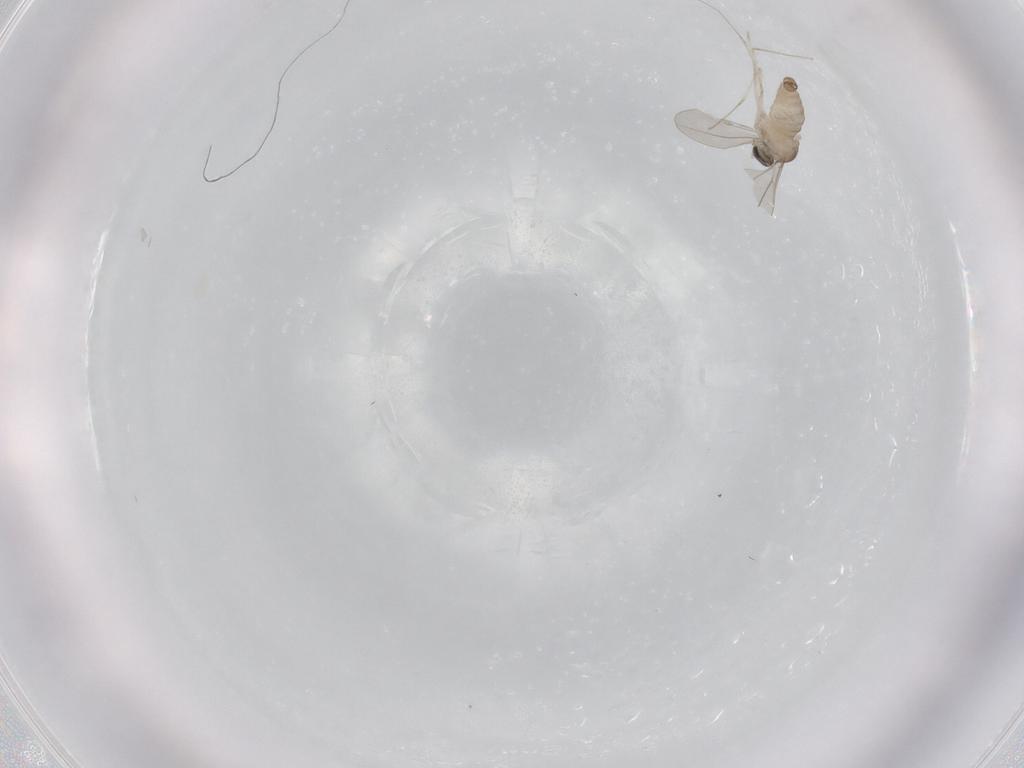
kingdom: Animalia
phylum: Arthropoda
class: Insecta
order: Diptera
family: Cecidomyiidae
